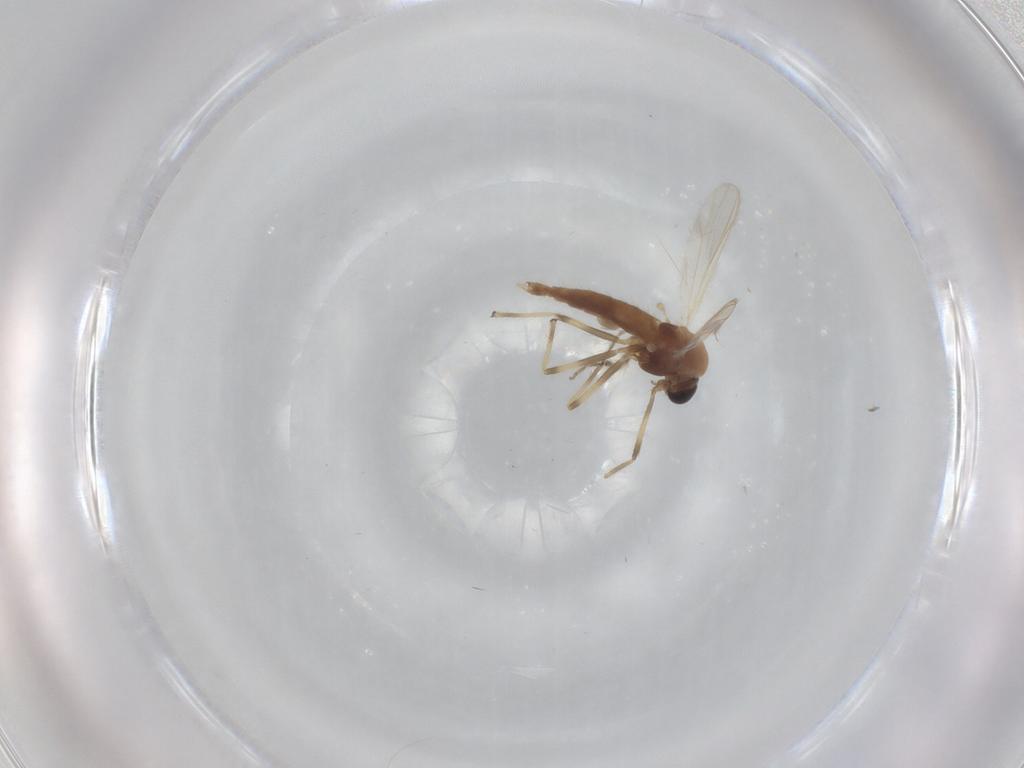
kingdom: Animalia
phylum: Arthropoda
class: Insecta
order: Diptera
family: Chironomidae
